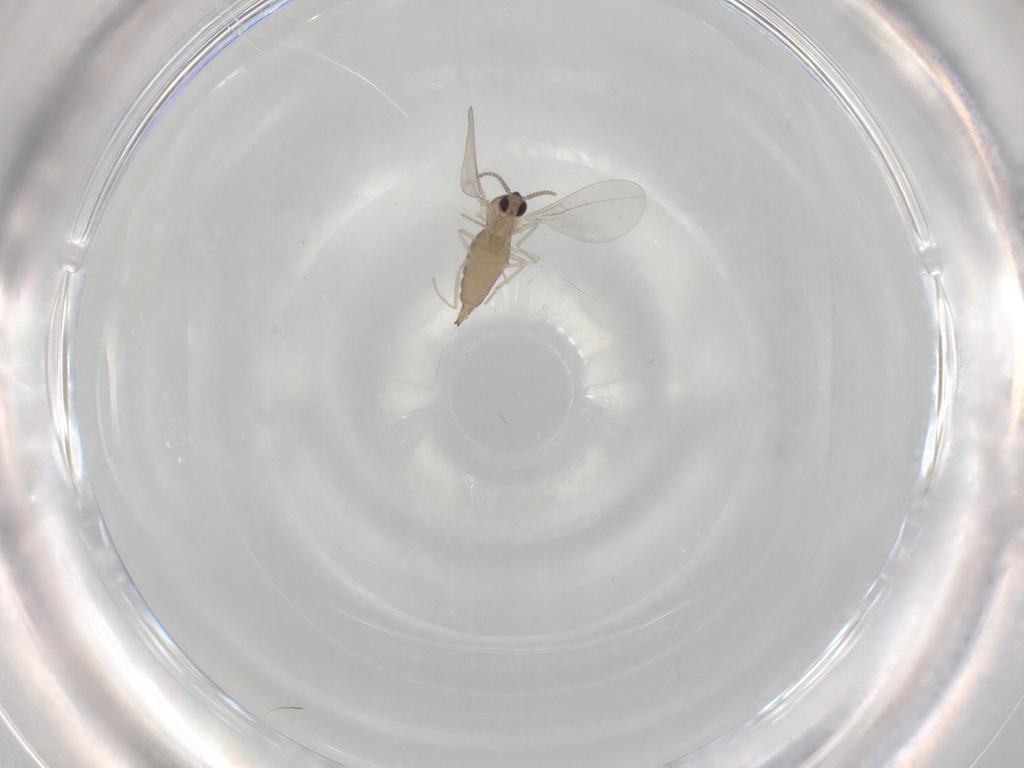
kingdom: Animalia
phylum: Arthropoda
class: Insecta
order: Diptera
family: Cecidomyiidae
